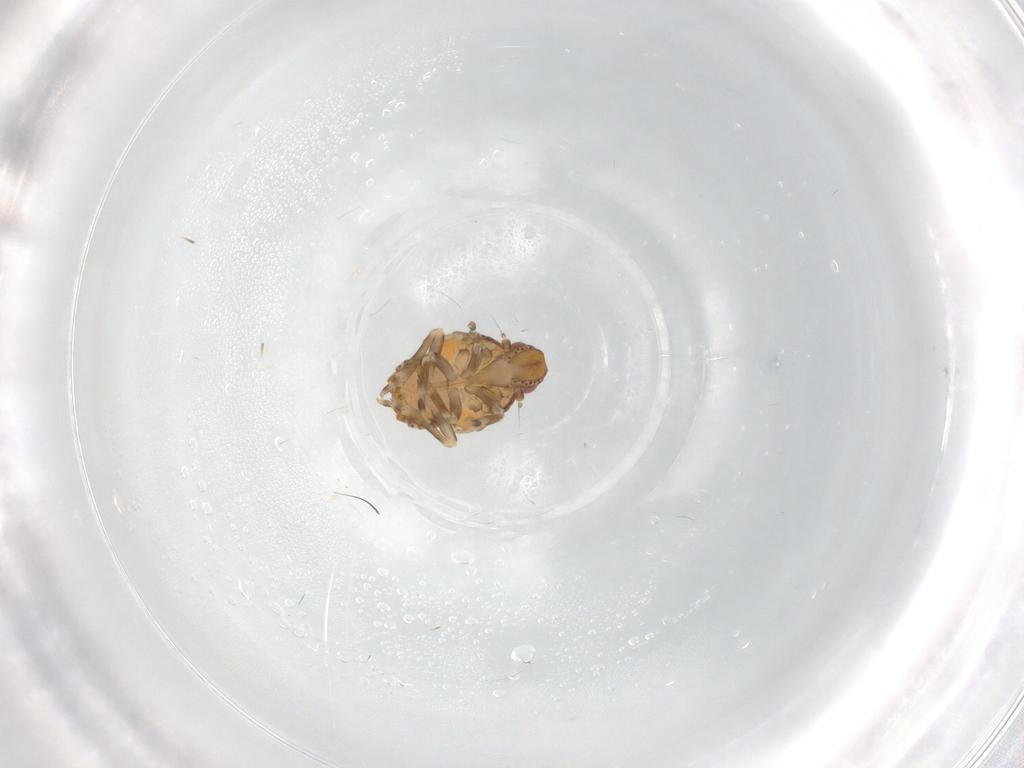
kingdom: Animalia
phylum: Arthropoda
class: Insecta
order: Hemiptera
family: Flatidae
